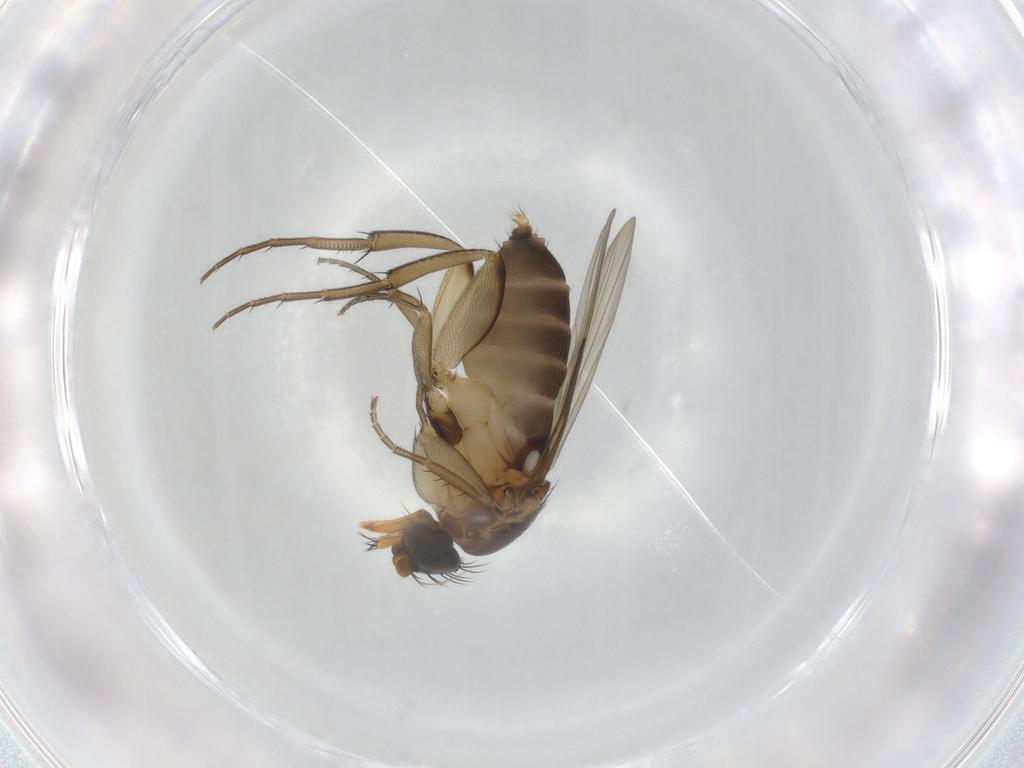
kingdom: Animalia
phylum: Arthropoda
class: Insecta
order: Diptera
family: Phoridae
